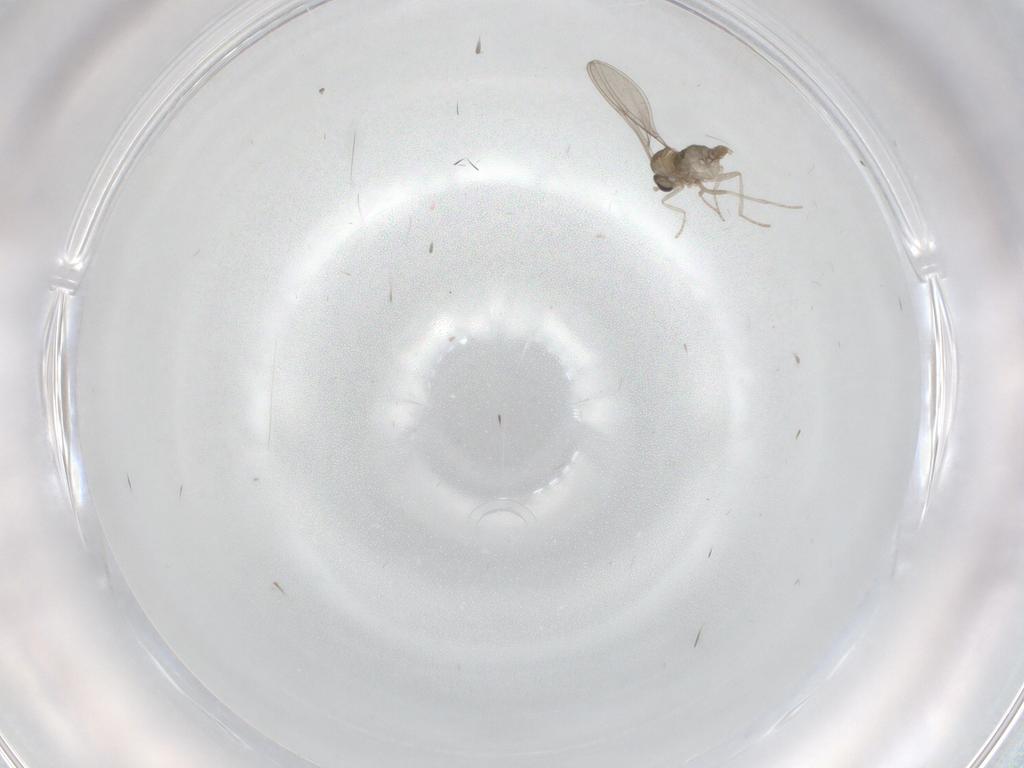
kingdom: Animalia
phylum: Arthropoda
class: Insecta
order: Diptera
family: Cecidomyiidae
